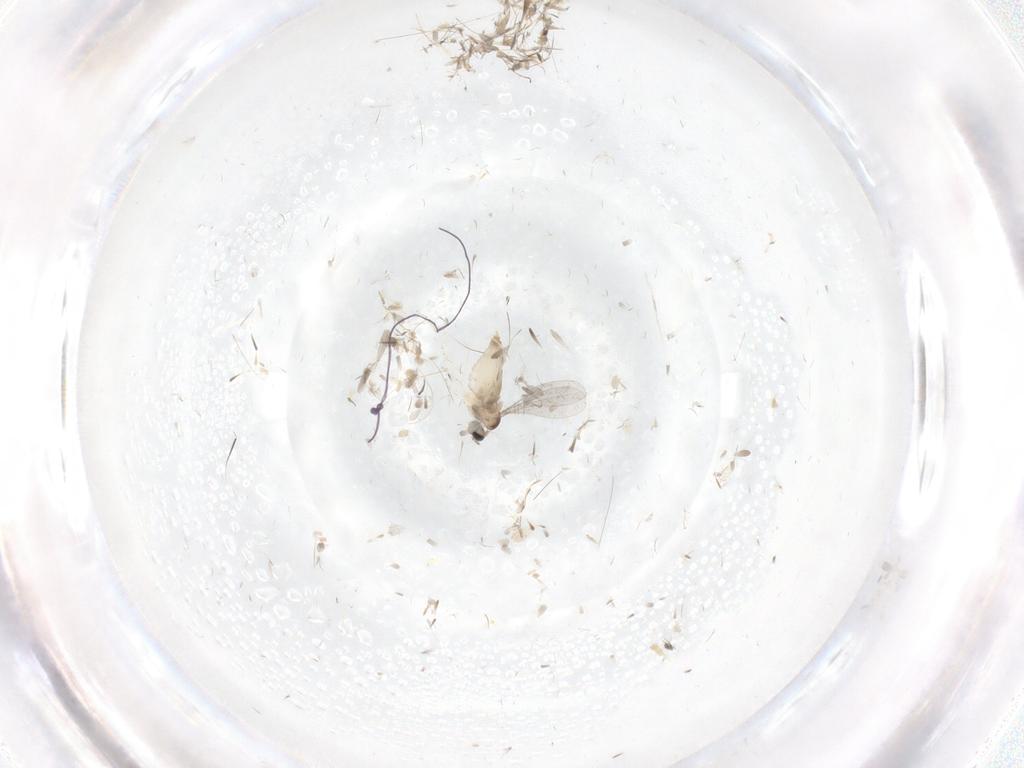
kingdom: Animalia
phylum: Arthropoda
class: Insecta
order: Diptera
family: Limoniidae
